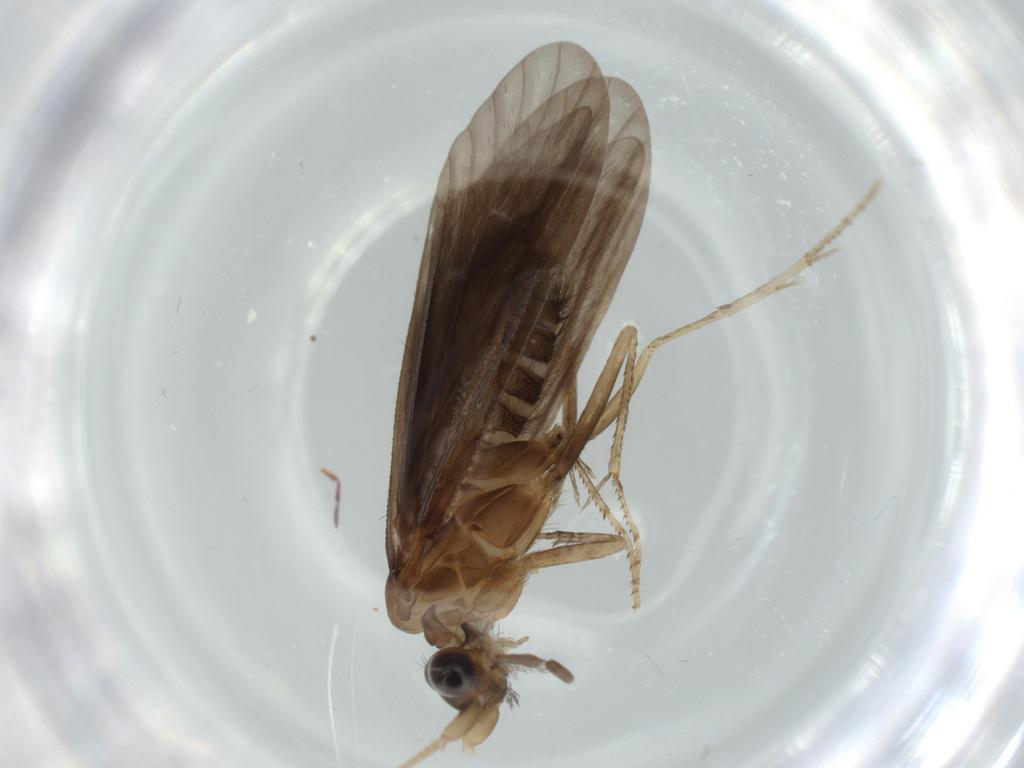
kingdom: Animalia
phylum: Arthropoda
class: Insecta
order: Trichoptera
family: Helicopsychidae
